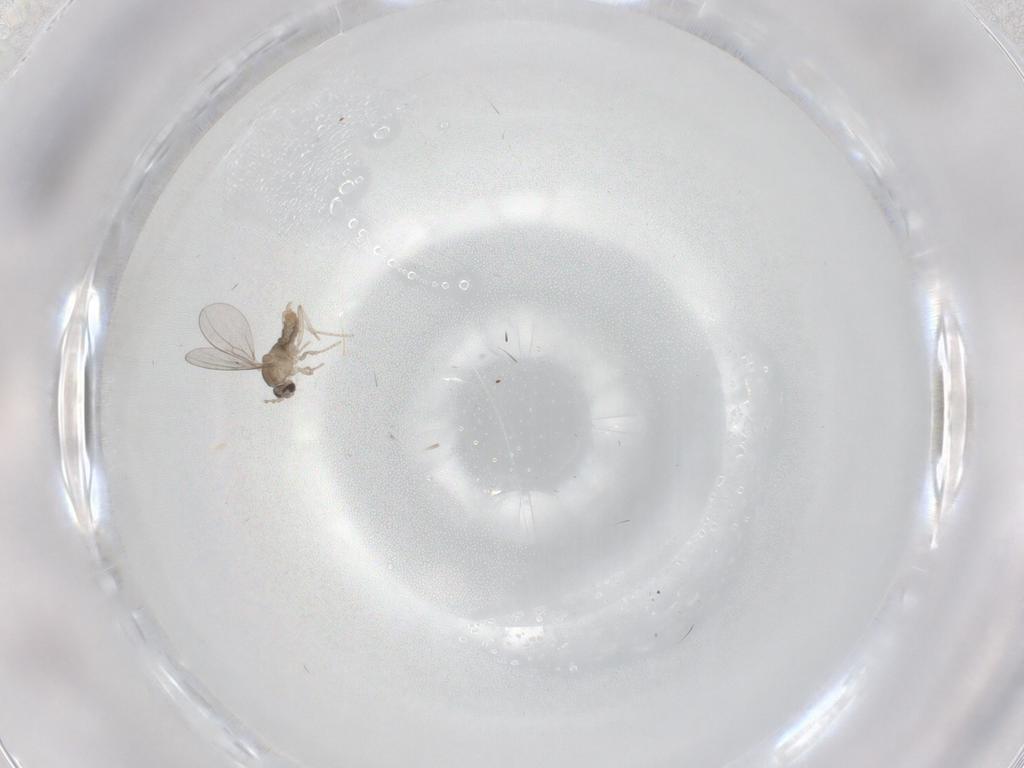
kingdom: Animalia
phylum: Arthropoda
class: Insecta
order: Diptera
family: Cecidomyiidae
